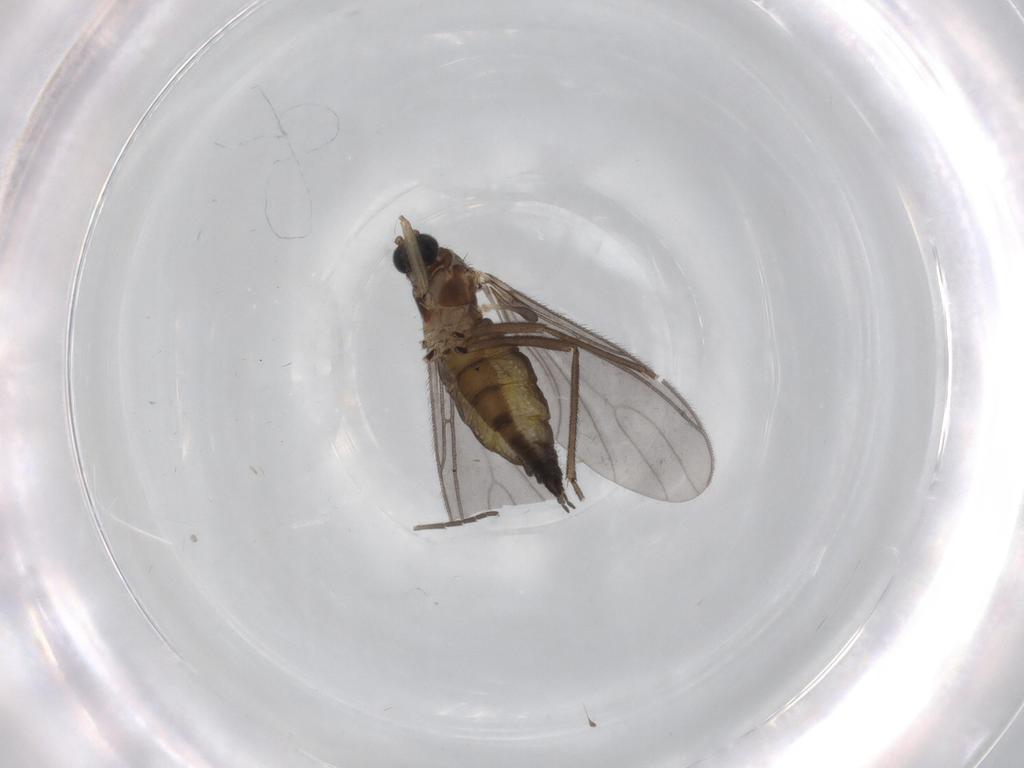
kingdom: Animalia
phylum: Arthropoda
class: Insecta
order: Diptera
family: Sciaridae
